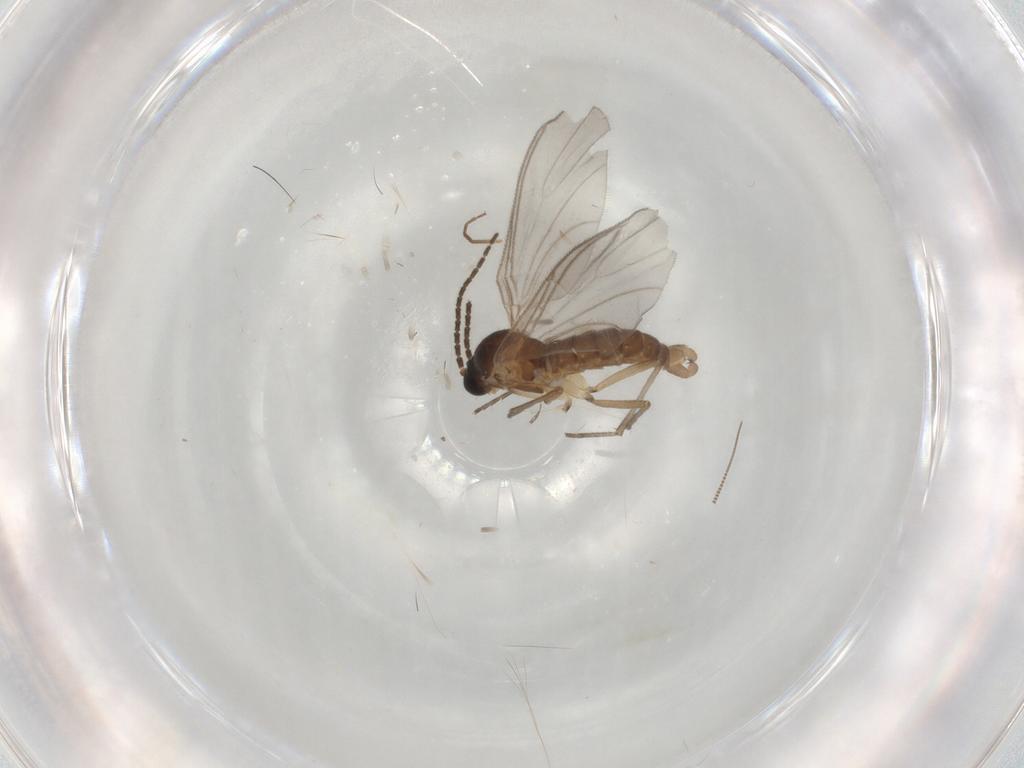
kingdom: Animalia
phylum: Arthropoda
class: Insecta
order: Diptera
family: Sciaridae
